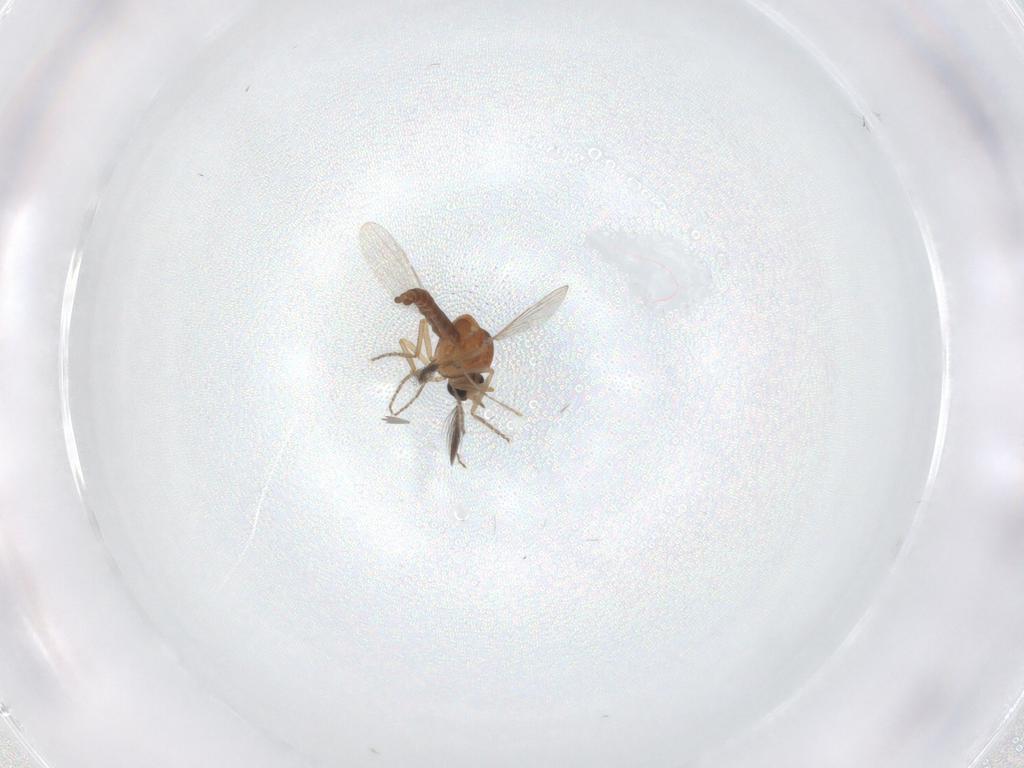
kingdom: Animalia
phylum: Arthropoda
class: Insecta
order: Diptera
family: Ceratopogonidae
